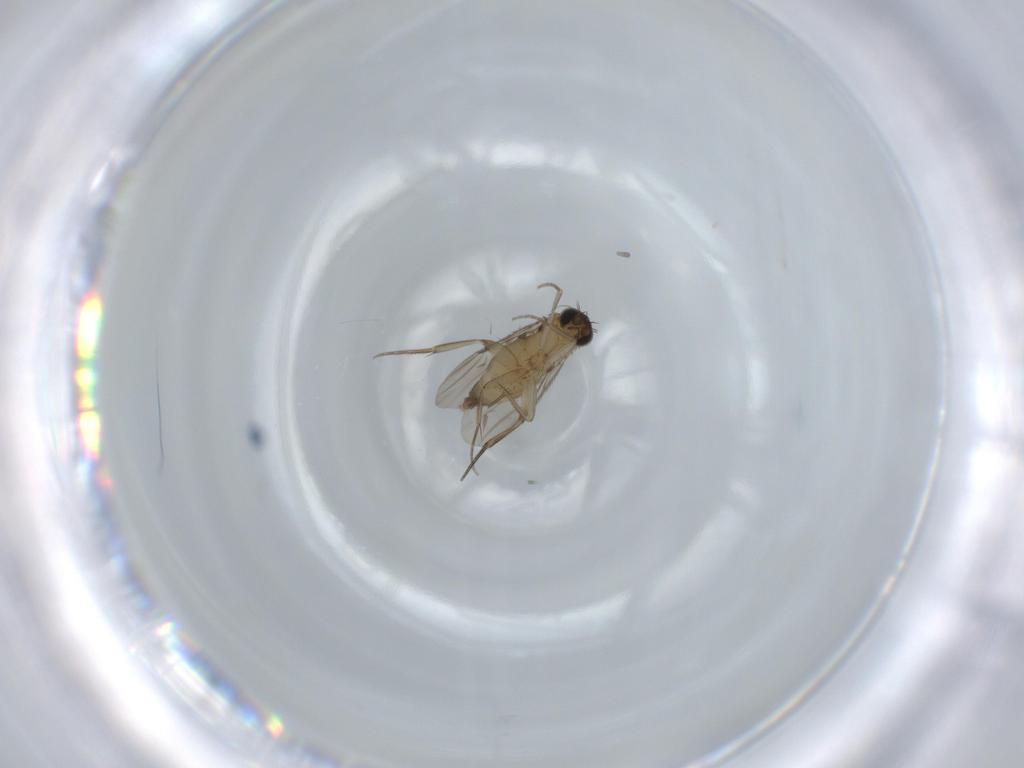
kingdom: Animalia
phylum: Arthropoda
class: Insecta
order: Diptera
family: Phoridae
